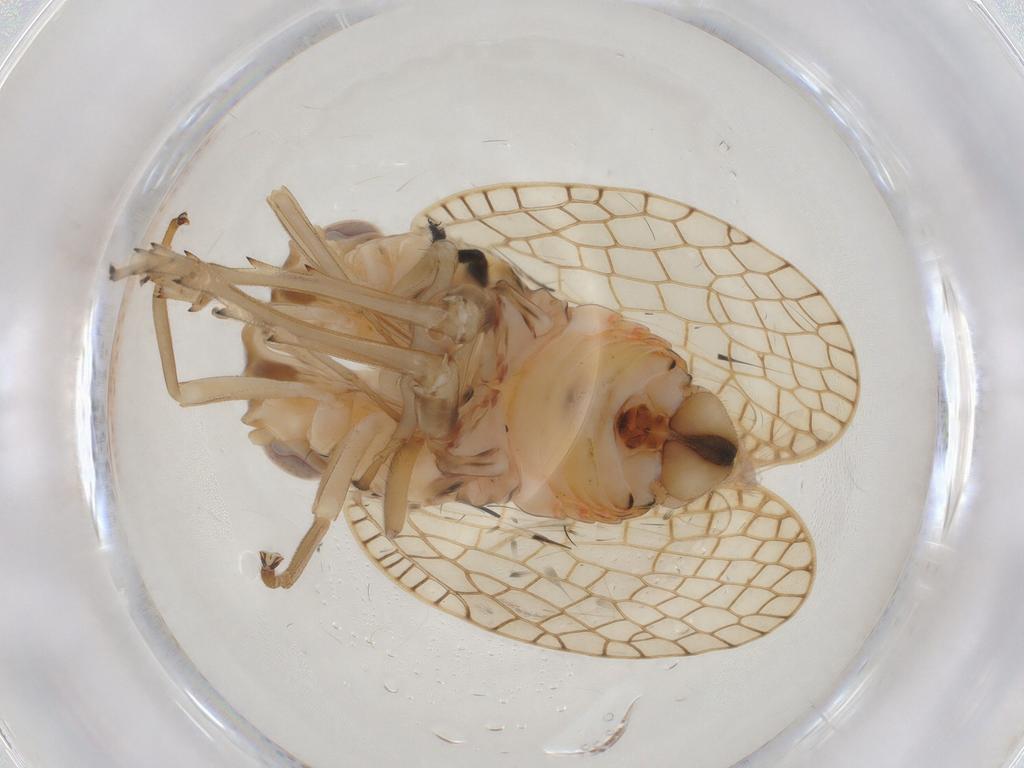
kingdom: Animalia
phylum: Arthropoda
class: Insecta
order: Hemiptera
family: Tropiduchidae
